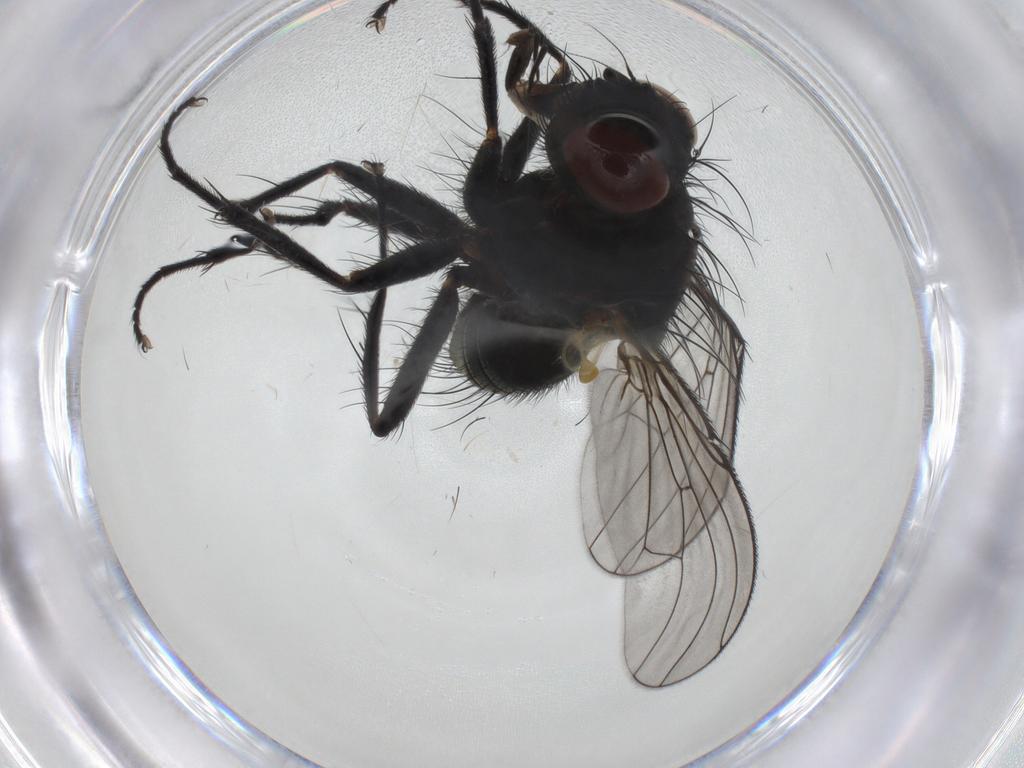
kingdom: Animalia
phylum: Arthropoda
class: Insecta
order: Diptera
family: Muscidae
